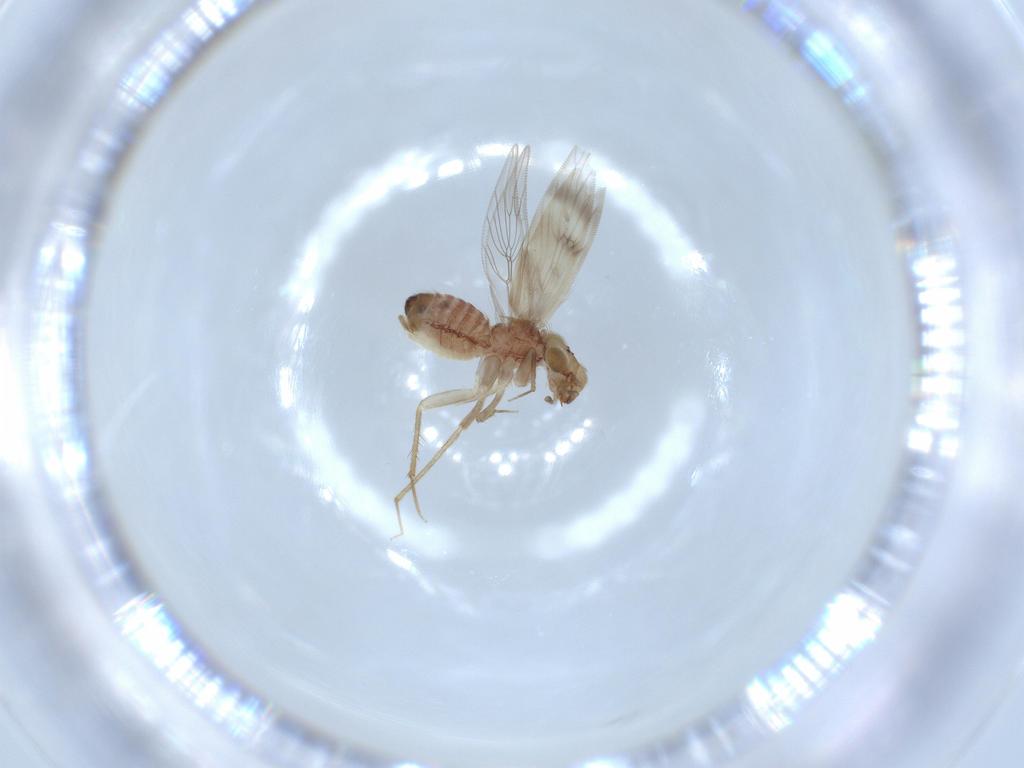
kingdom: Animalia
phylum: Arthropoda
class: Insecta
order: Psocodea
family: Lepidopsocidae
